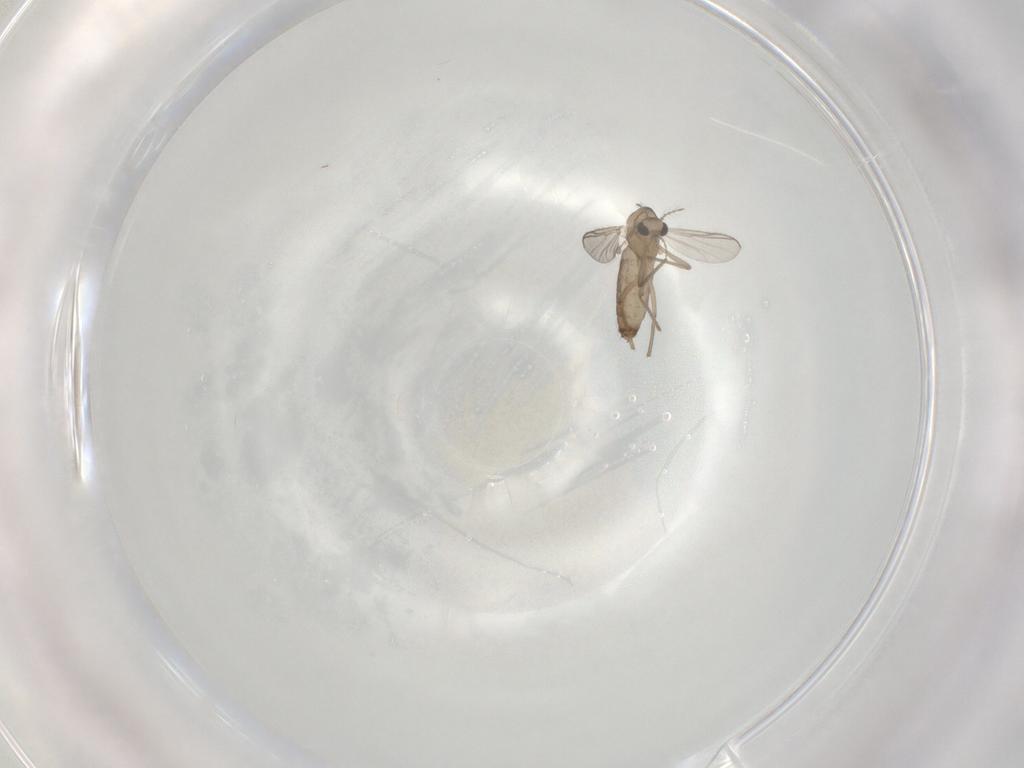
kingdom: Animalia
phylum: Arthropoda
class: Insecta
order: Diptera
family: Chironomidae
